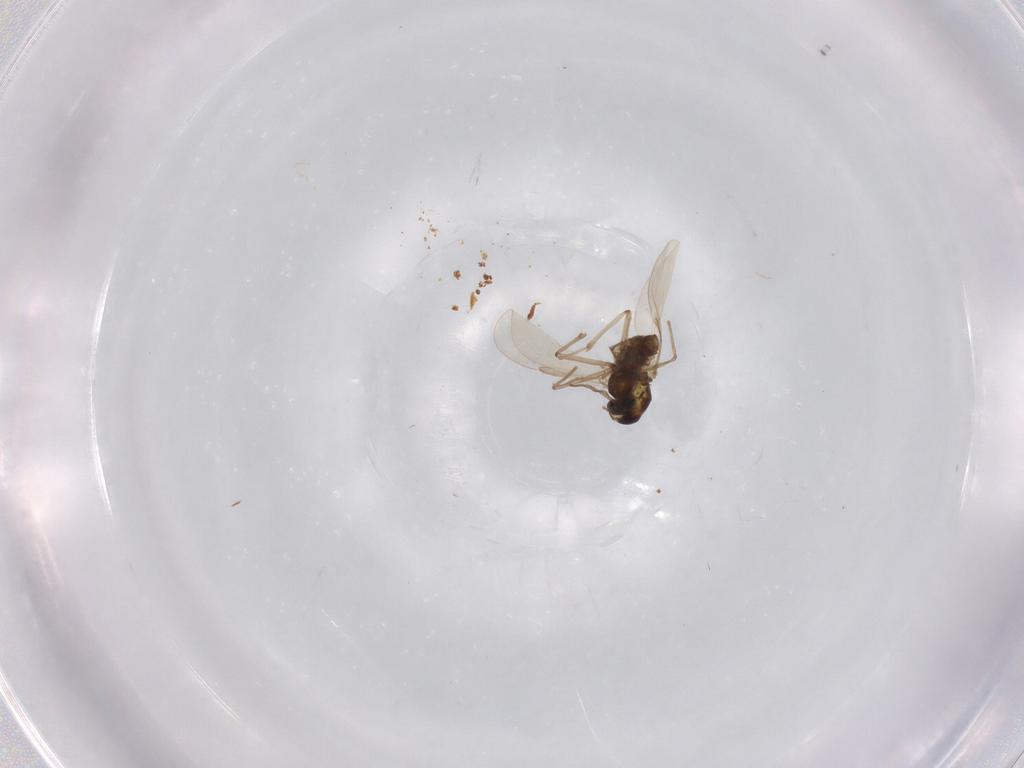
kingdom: Animalia
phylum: Arthropoda
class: Insecta
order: Diptera
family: Chironomidae
